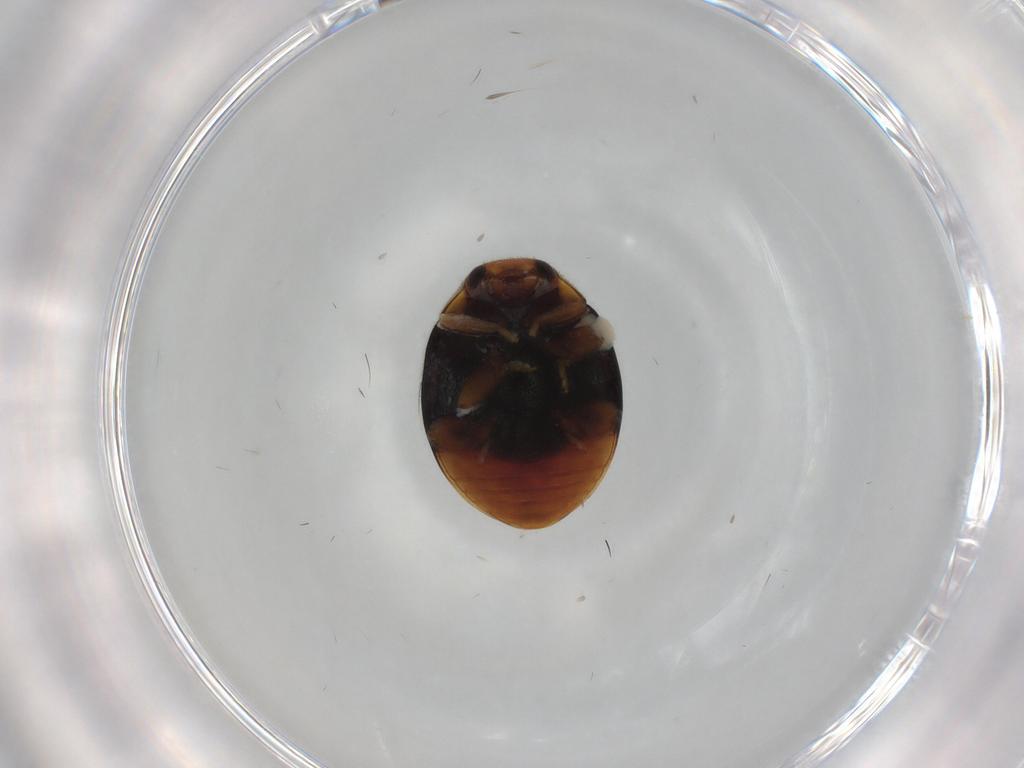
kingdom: Animalia
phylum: Arthropoda
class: Insecta
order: Coleoptera
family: Coccinellidae
